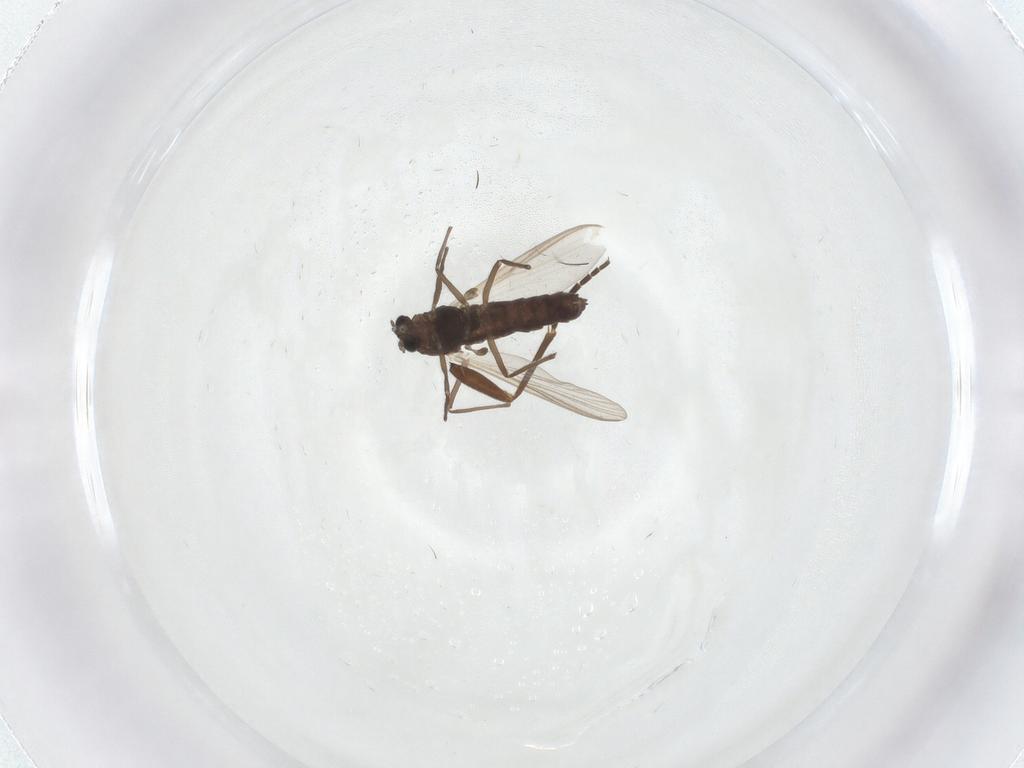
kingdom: Animalia
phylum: Arthropoda
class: Insecta
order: Diptera
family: Sciaridae
